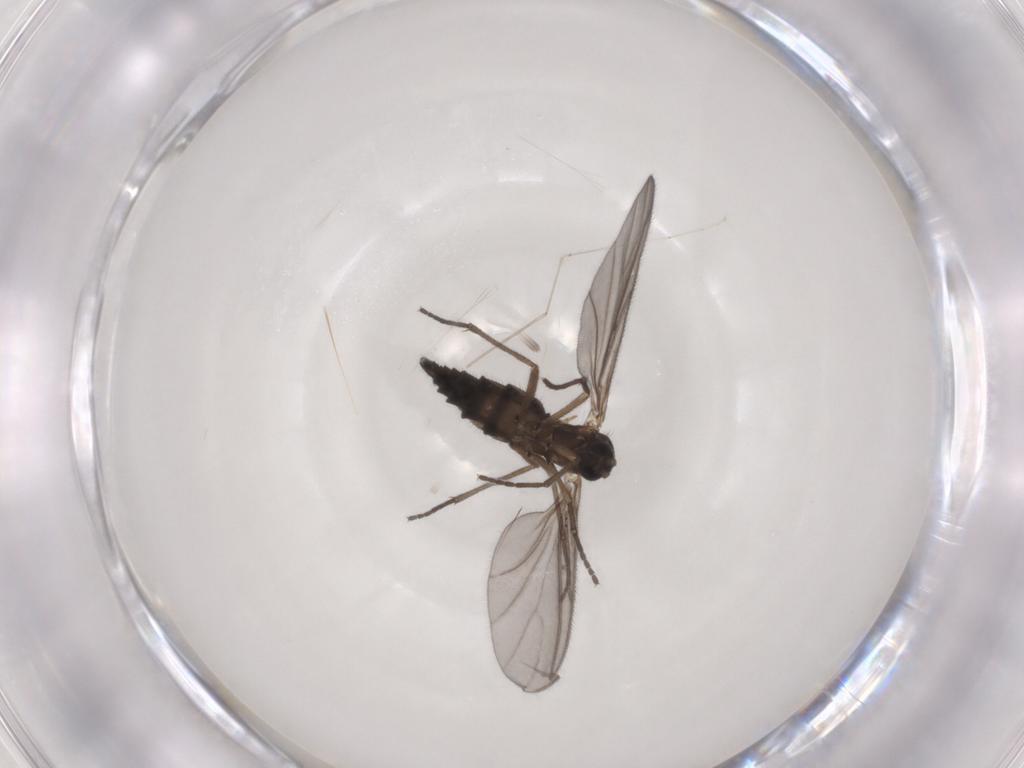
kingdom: Animalia
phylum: Arthropoda
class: Insecta
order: Diptera
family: Sciaridae
